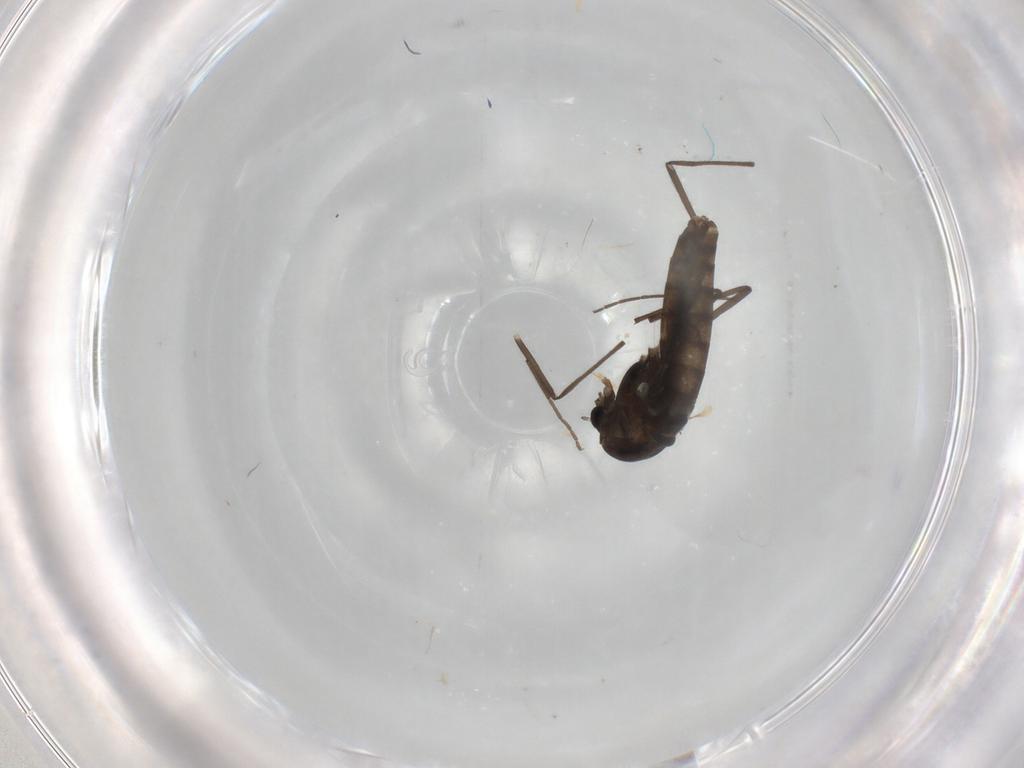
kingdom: Animalia
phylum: Arthropoda
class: Insecta
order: Diptera
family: Chironomidae
